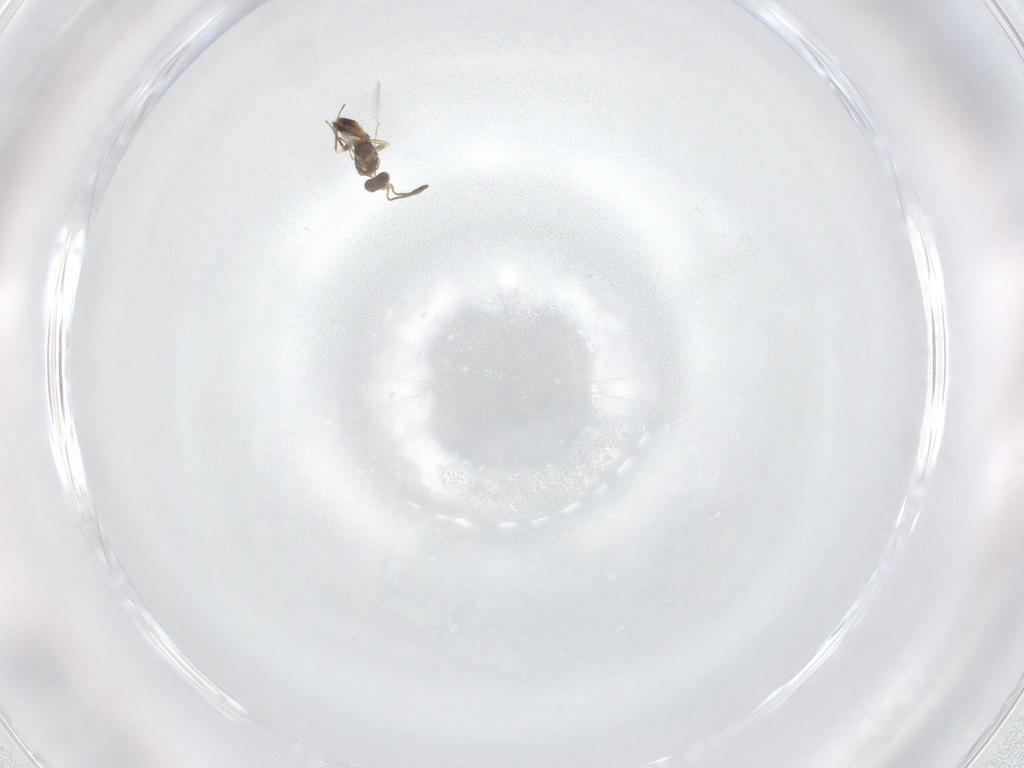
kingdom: Animalia
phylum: Arthropoda
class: Insecta
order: Hymenoptera
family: Mymaridae
